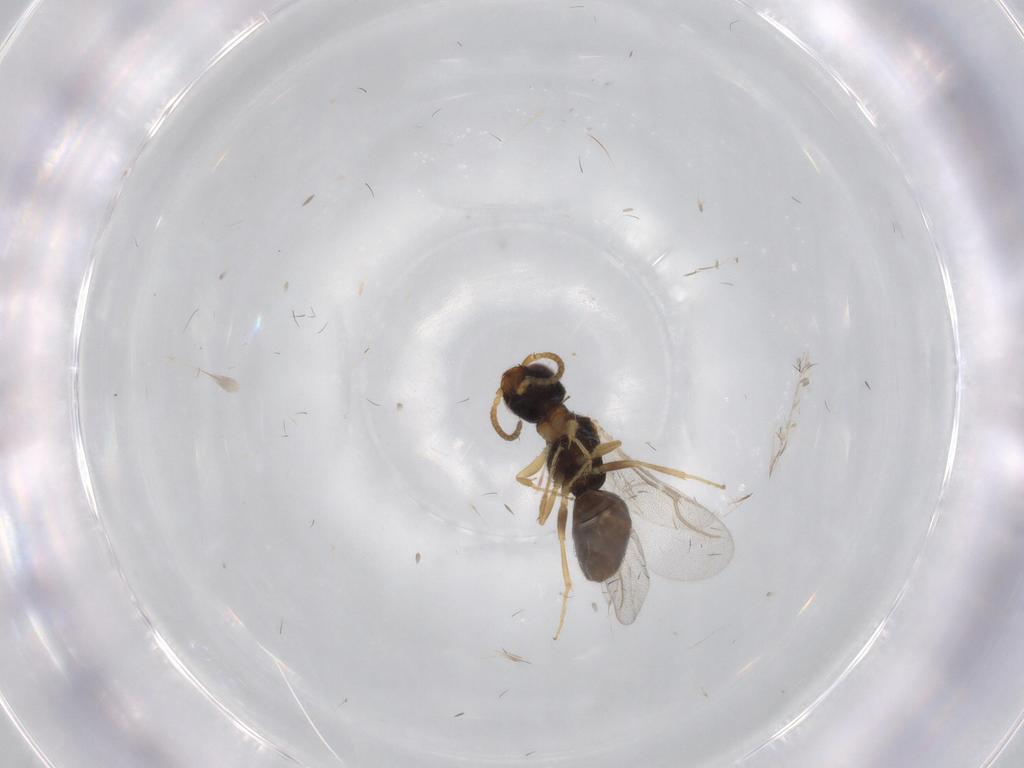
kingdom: Animalia
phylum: Arthropoda
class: Insecta
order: Hymenoptera
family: Bethylidae
